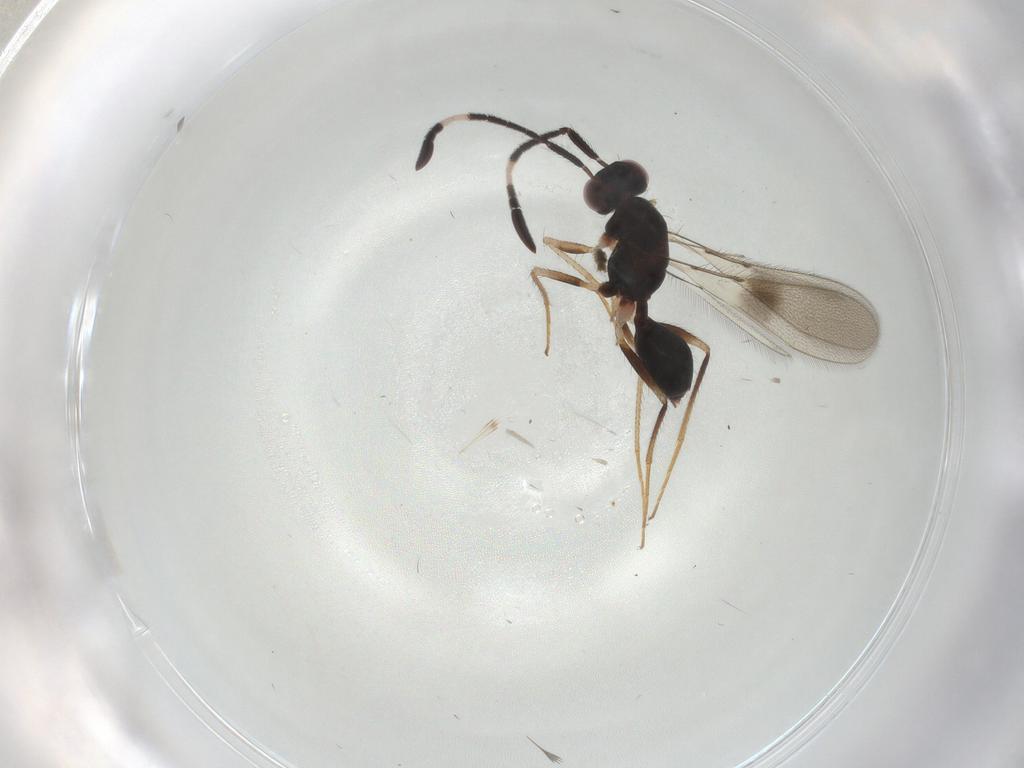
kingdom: Animalia
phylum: Arthropoda
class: Insecta
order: Hymenoptera
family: Mymaridae
